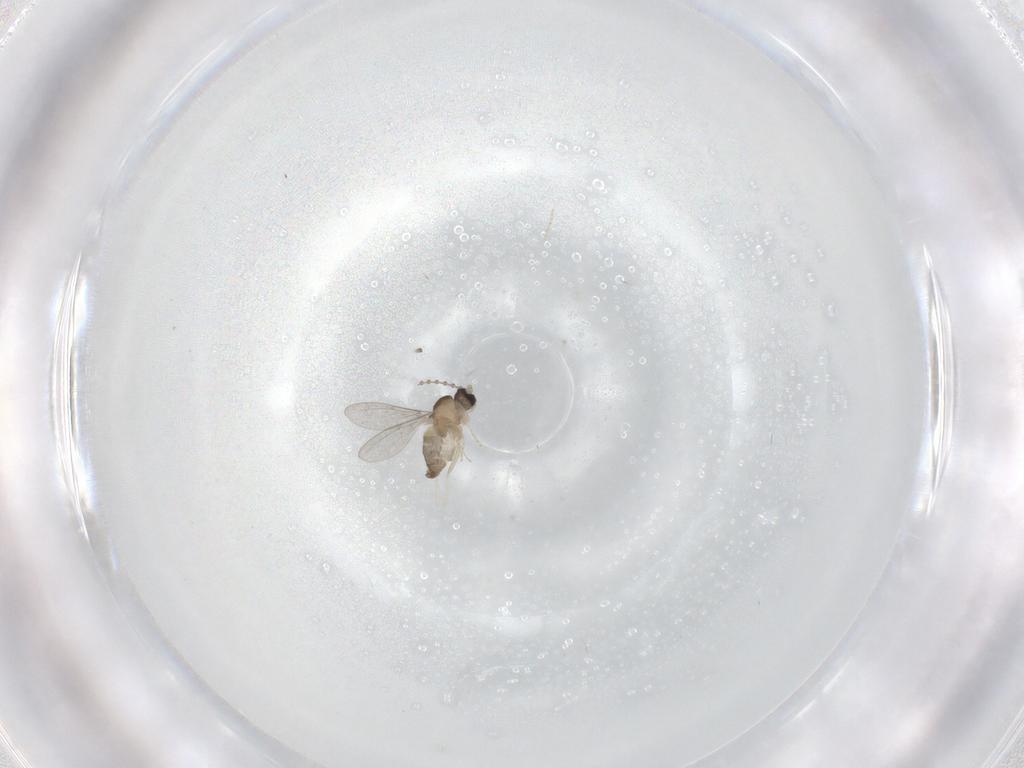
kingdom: Animalia
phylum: Arthropoda
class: Insecta
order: Diptera
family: Cecidomyiidae
